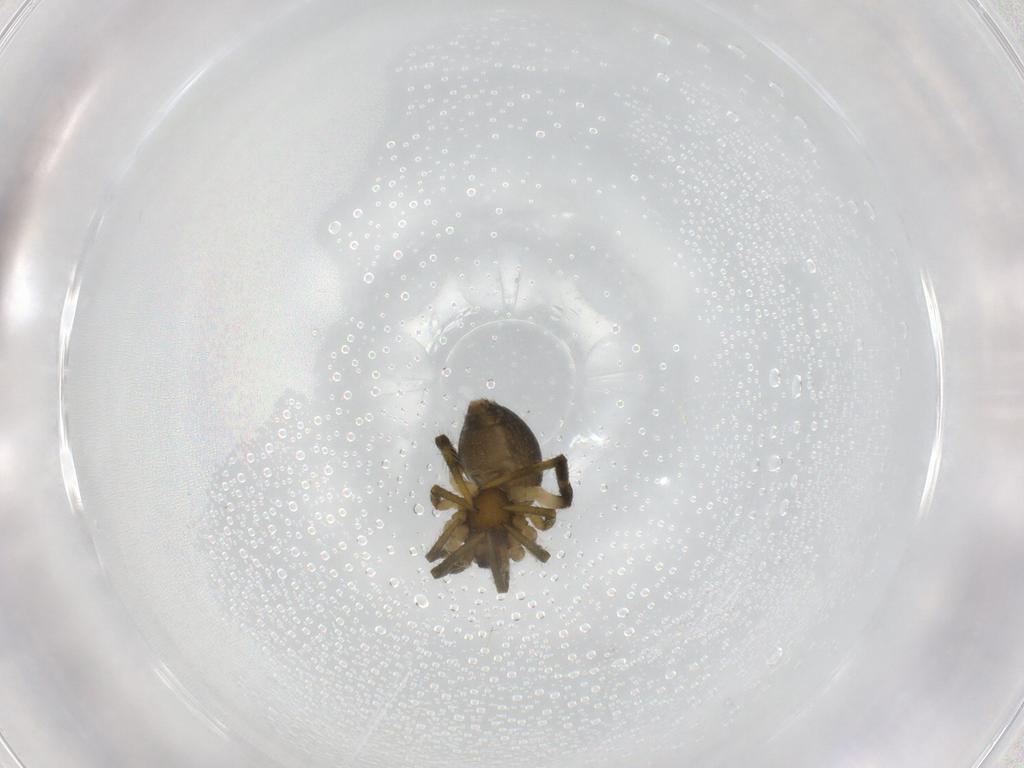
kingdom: Animalia
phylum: Arthropoda
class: Arachnida
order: Araneae
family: Theridiidae
